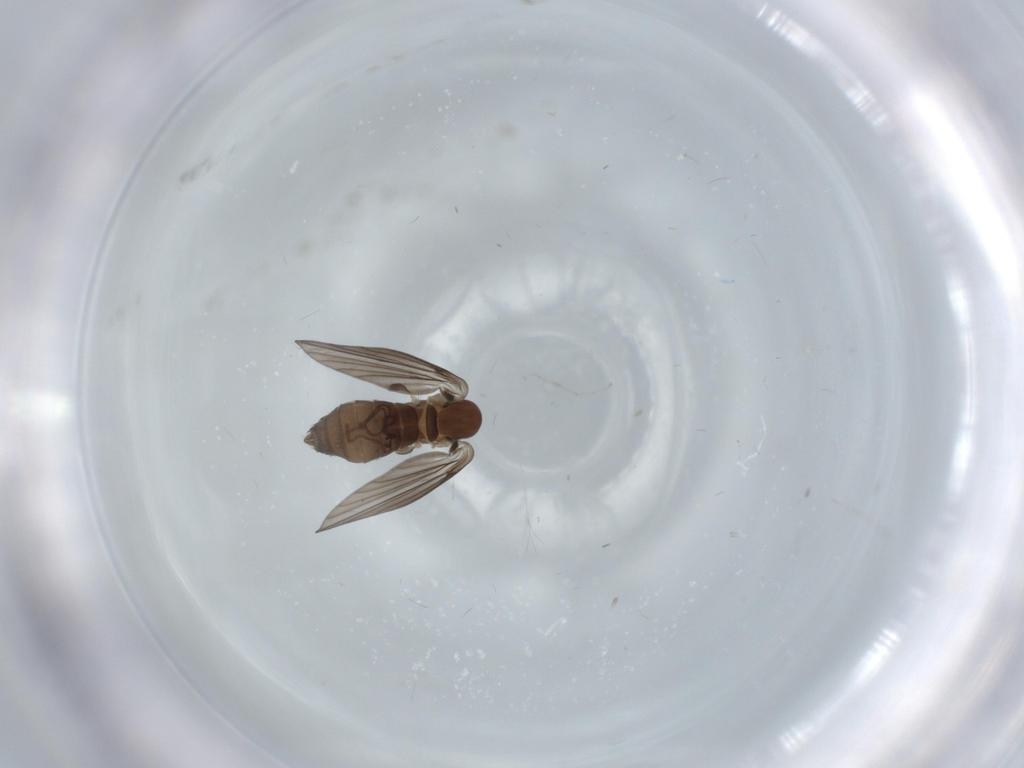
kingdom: Animalia
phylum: Arthropoda
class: Insecta
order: Diptera
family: Psychodidae
